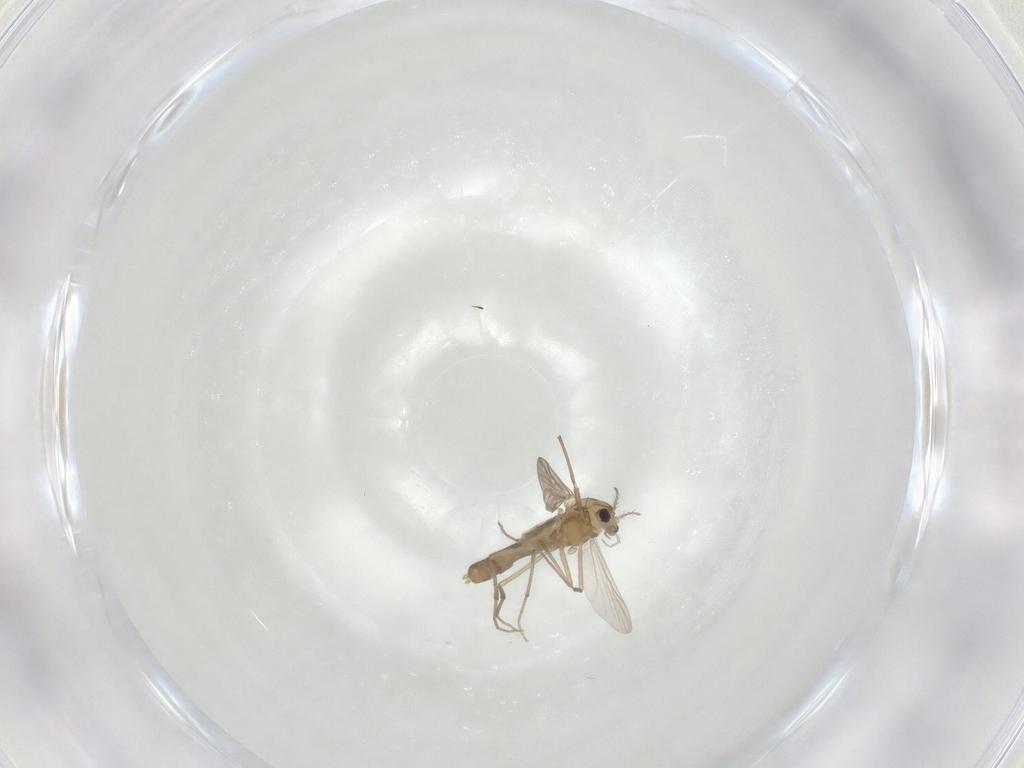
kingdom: Animalia
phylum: Arthropoda
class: Insecta
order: Diptera
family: Chironomidae
